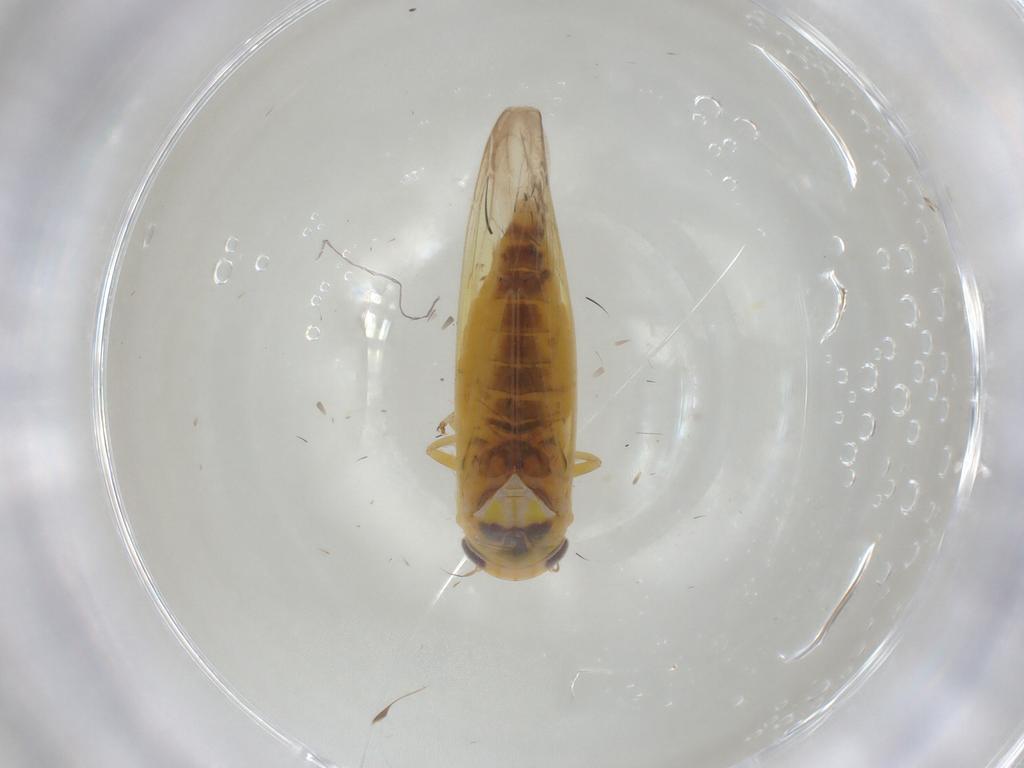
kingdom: Animalia
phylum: Arthropoda
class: Insecta
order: Hemiptera
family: Cicadellidae
